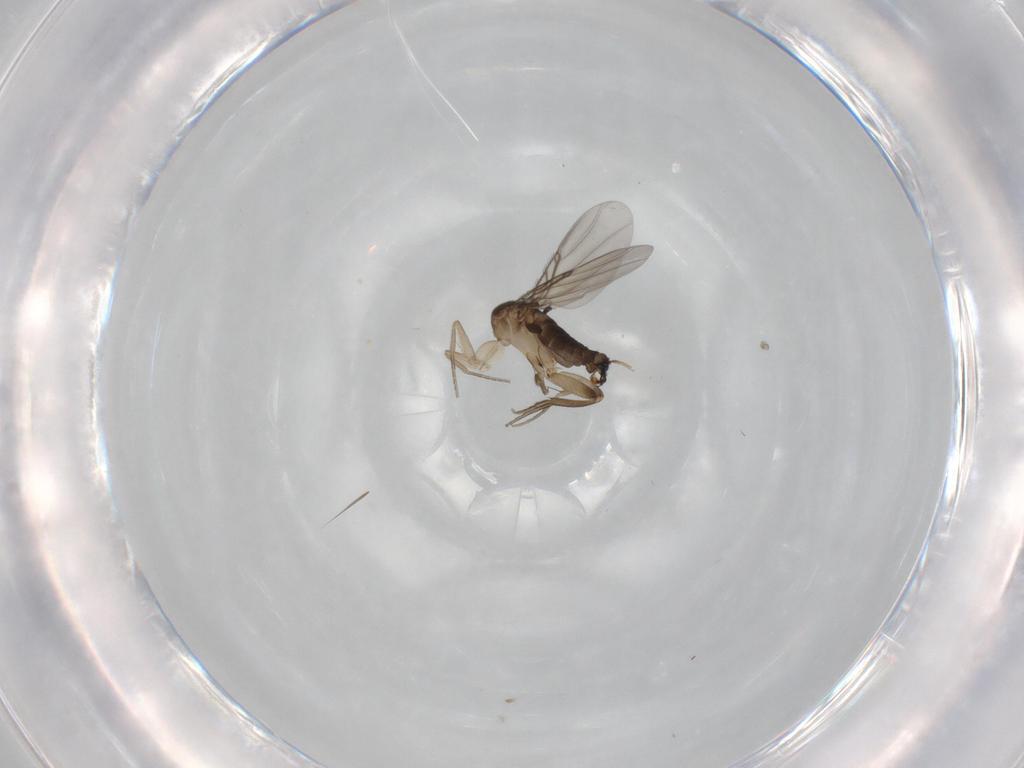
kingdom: Animalia
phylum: Arthropoda
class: Insecta
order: Diptera
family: Phoridae
